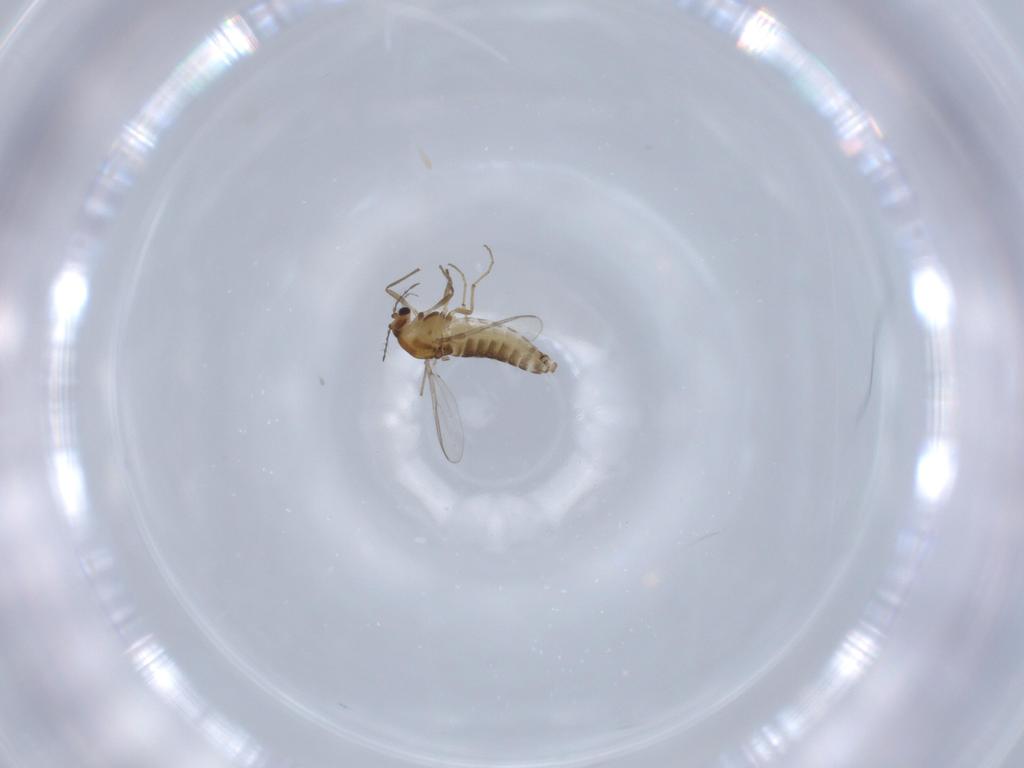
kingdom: Animalia
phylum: Arthropoda
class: Insecta
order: Diptera
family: Chironomidae
